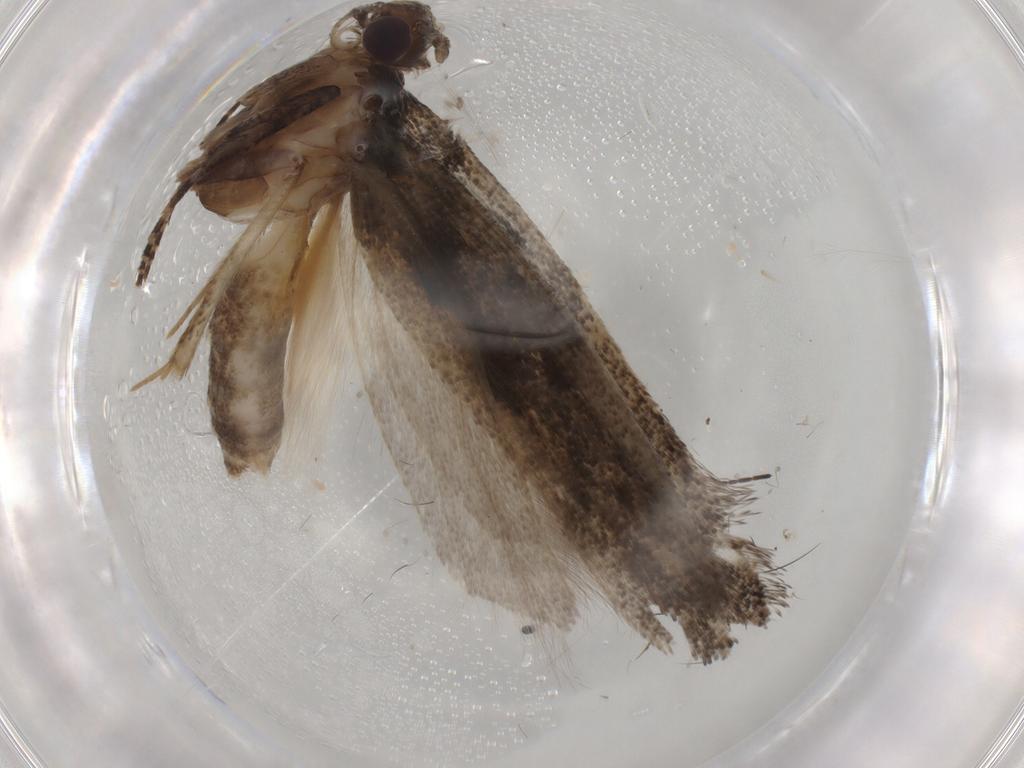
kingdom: Animalia
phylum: Arthropoda
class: Insecta
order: Lepidoptera
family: Gelechiidae
